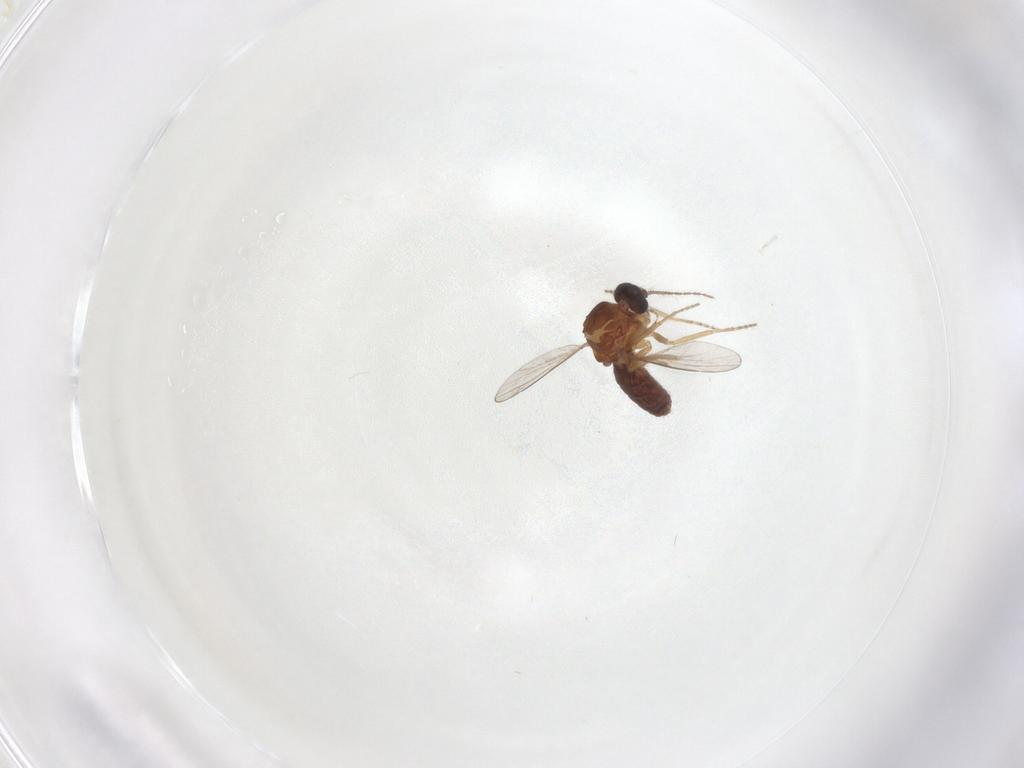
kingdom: Animalia
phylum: Arthropoda
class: Insecta
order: Diptera
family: Ceratopogonidae
